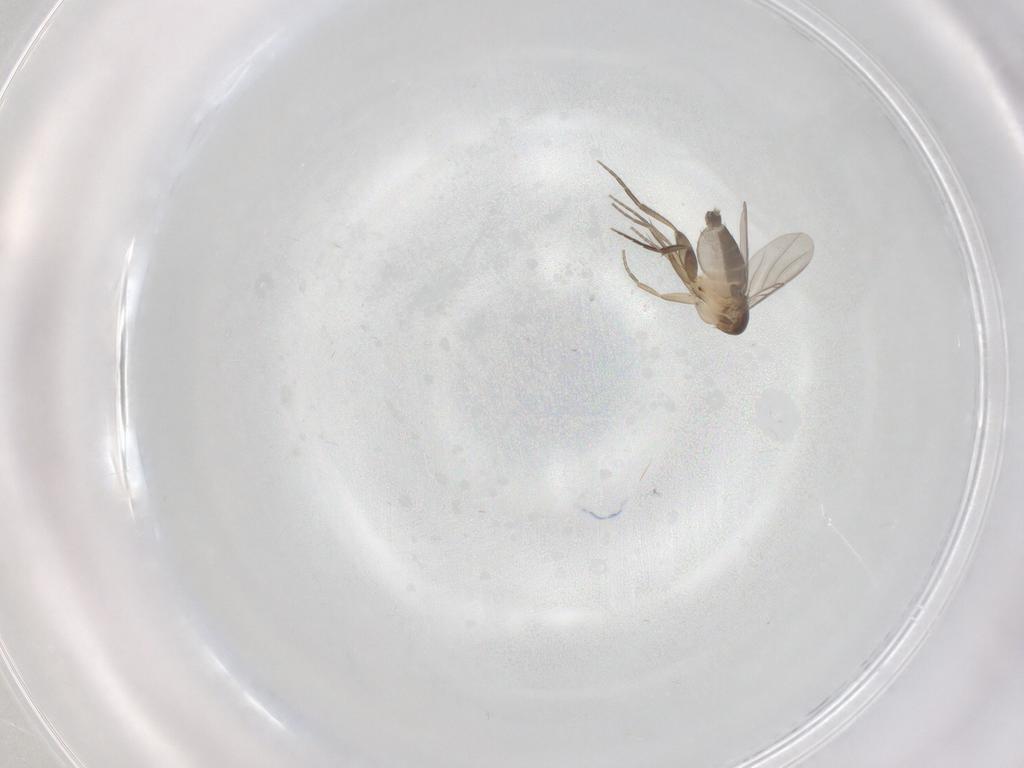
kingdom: Animalia
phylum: Arthropoda
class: Insecta
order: Diptera
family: Phoridae
